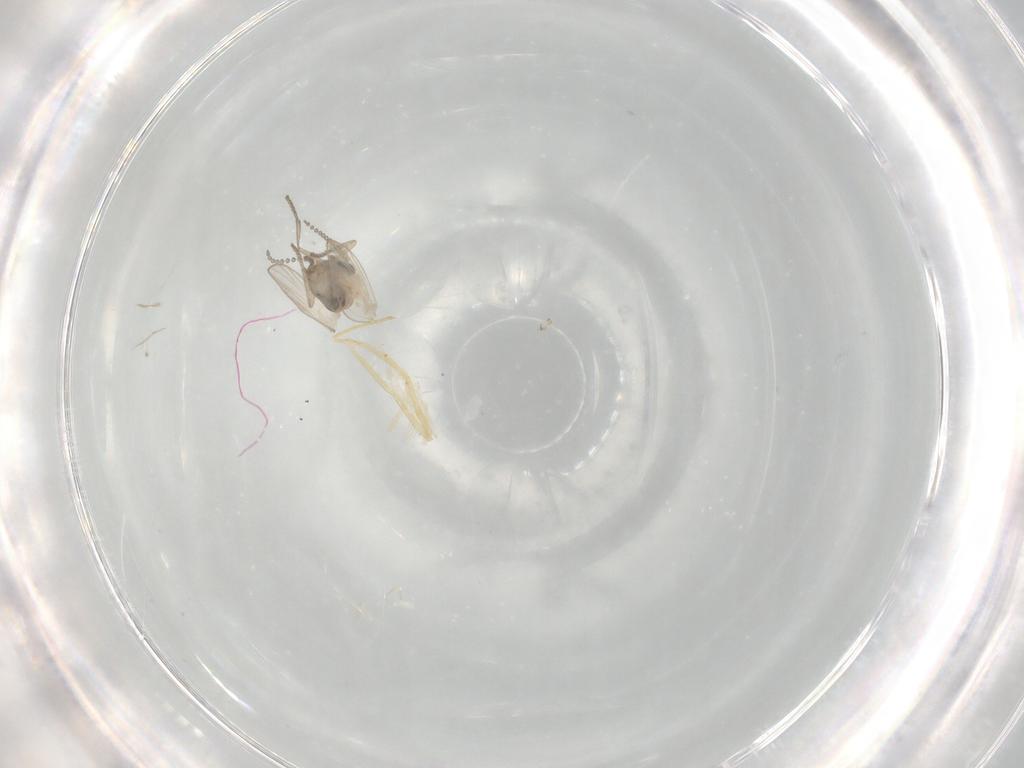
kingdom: Animalia
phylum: Arthropoda
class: Insecta
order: Diptera
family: Psychodidae
